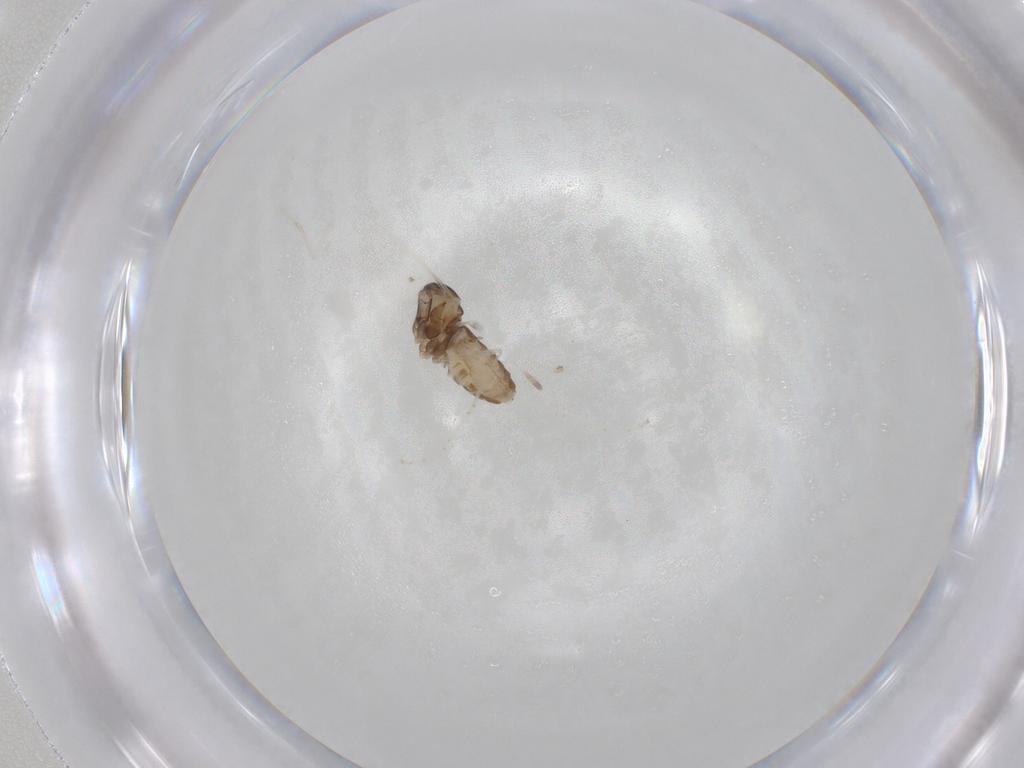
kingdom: Animalia
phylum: Arthropoda
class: Insecta
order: Diptera
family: Cecidomyiidae
